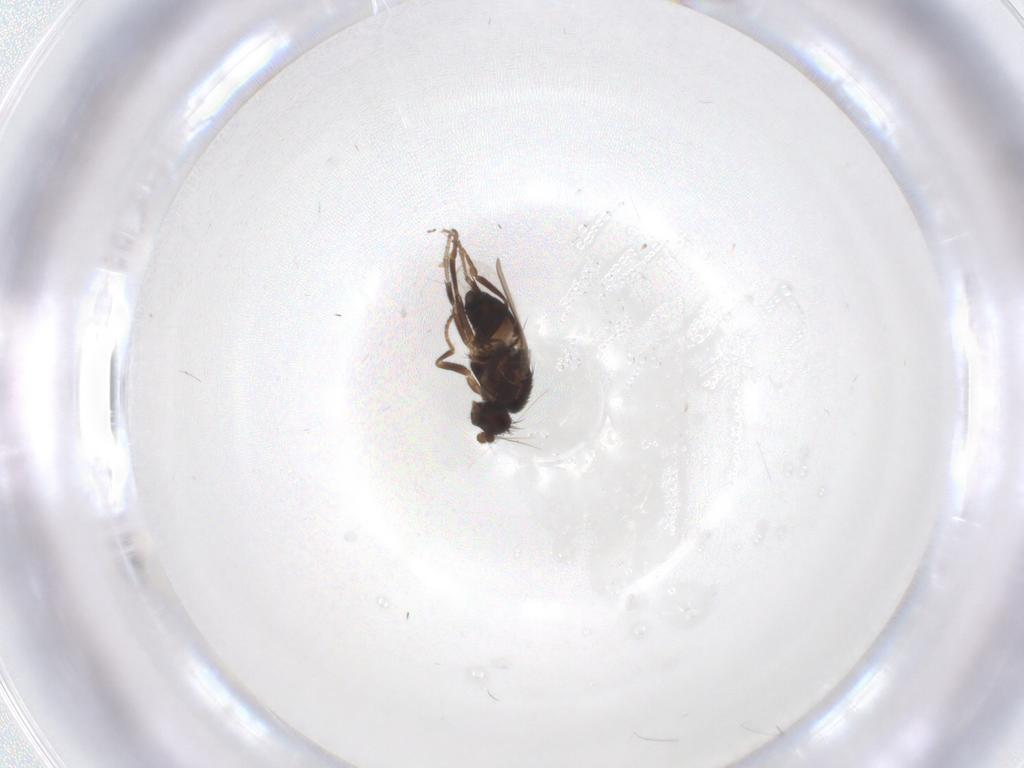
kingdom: Animalia
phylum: Arthropoda
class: Insecta
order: Diptera
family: Sphaeroceridae
